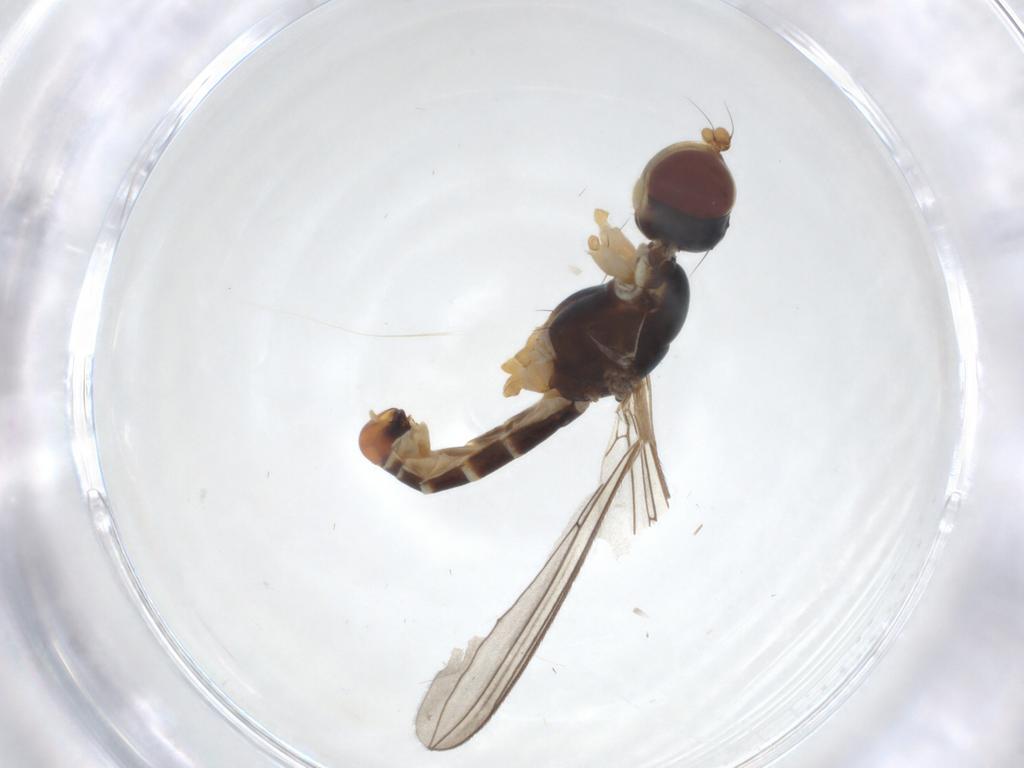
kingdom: Animalia
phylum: Arthropoda
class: Insecta
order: Diptera
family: Micropezidae
